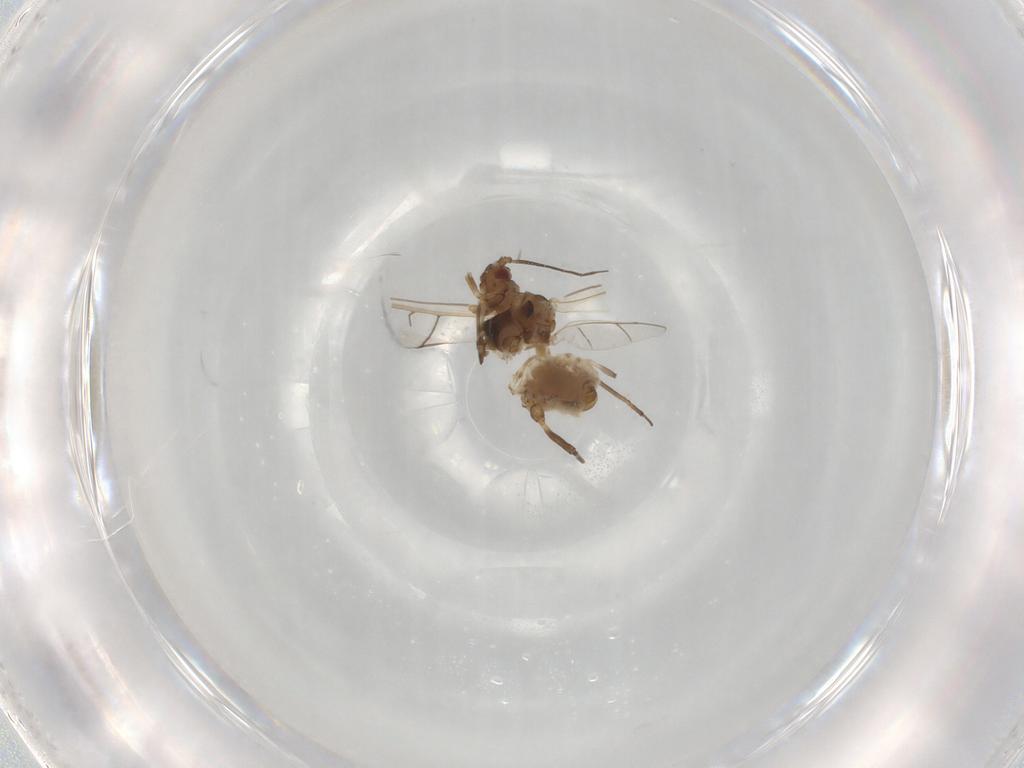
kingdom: Animalia
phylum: Arthropoda
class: Insecta
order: Hemiptera
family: Aphididae
